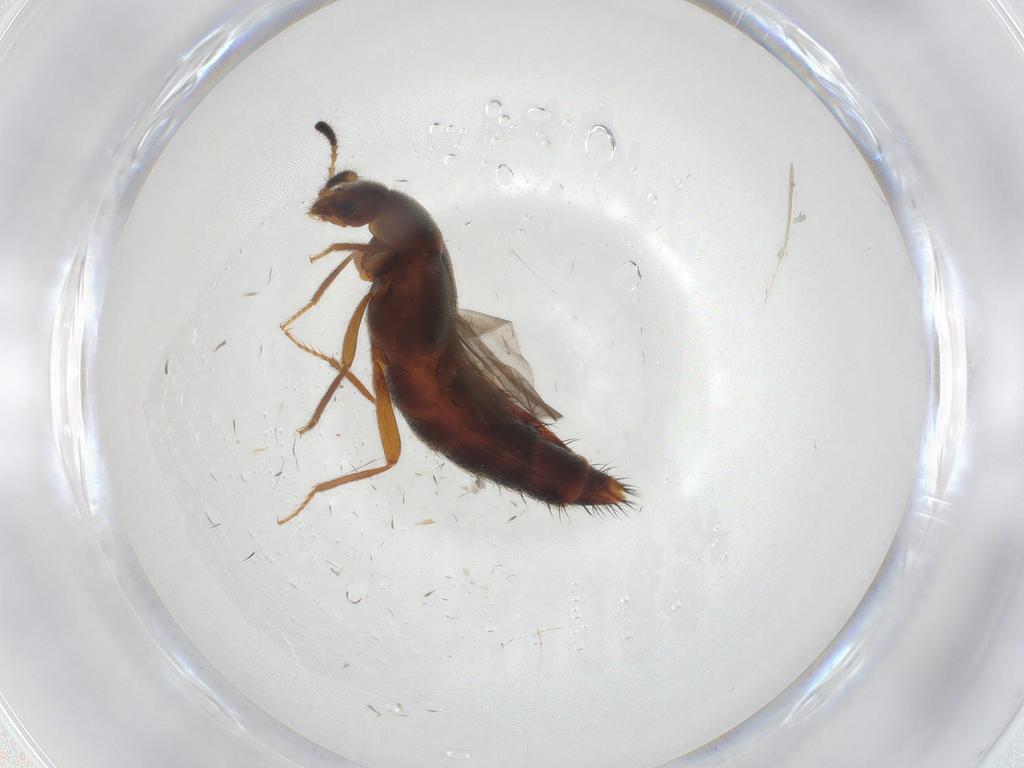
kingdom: Animalia
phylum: Arthropoda
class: Insecta
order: Coleoptera
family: Staphylinidae
